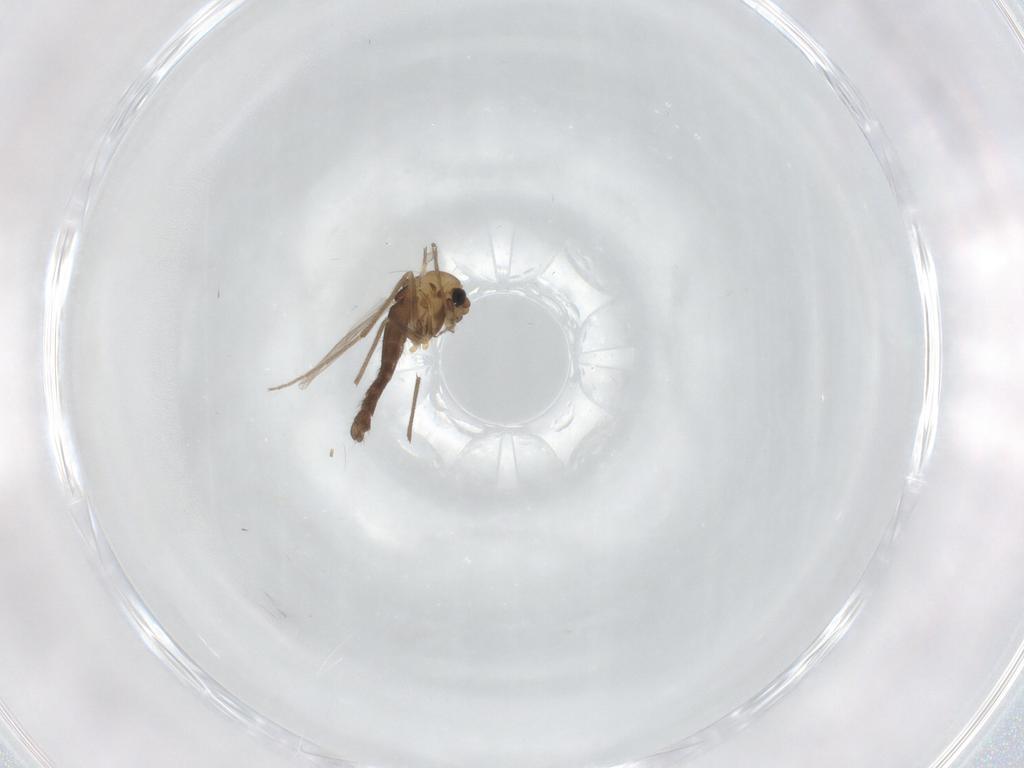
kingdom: Animalia
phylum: Arthropoda
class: Insecta
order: Diptera
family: Chironomidae
